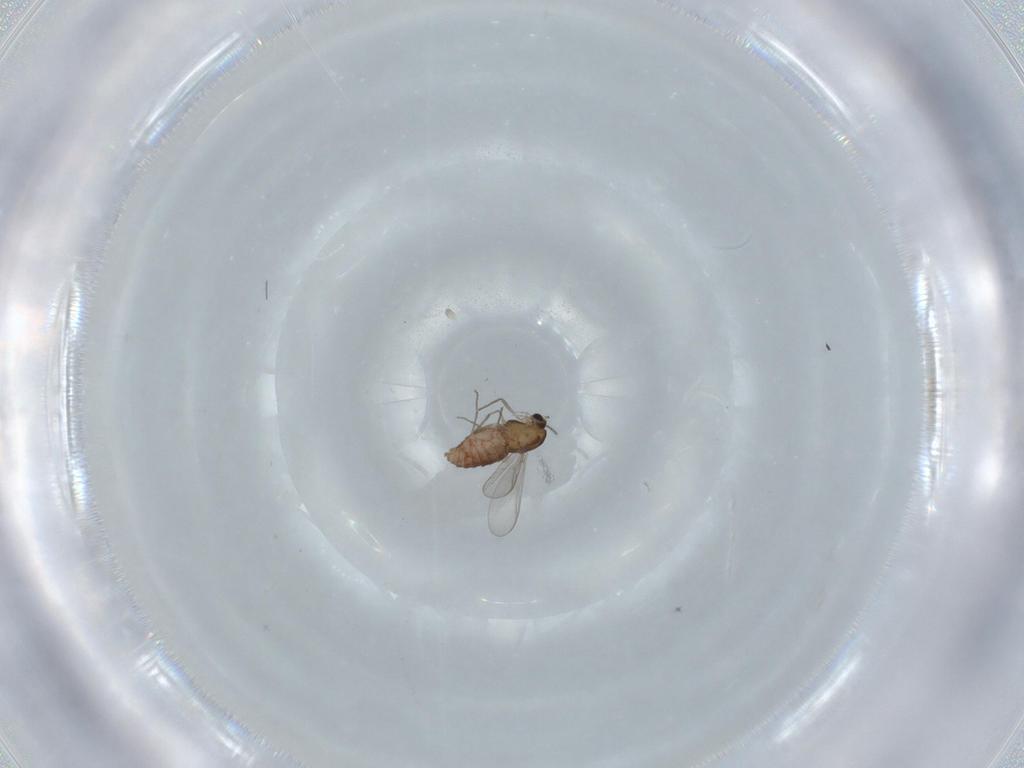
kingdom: Animalia
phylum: Arthropoda
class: Insecta
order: Diptera
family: Chironomidae
